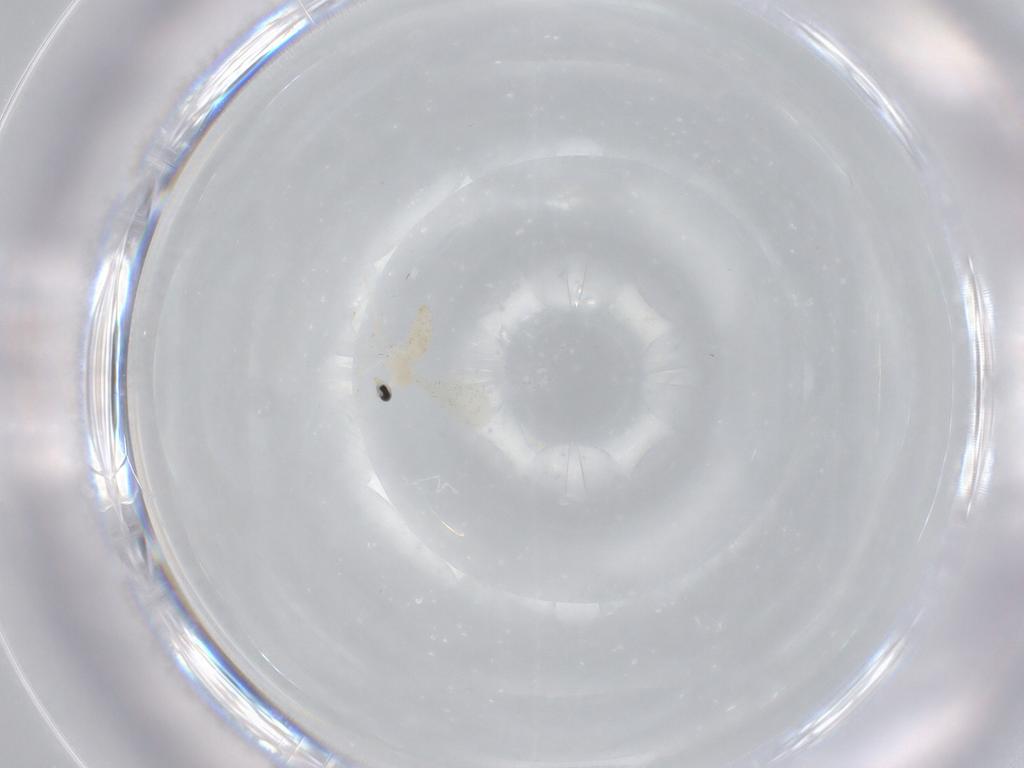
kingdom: Animalia
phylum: Arthropoda
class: Insecta
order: Diptera
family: Cecidomyiidae
